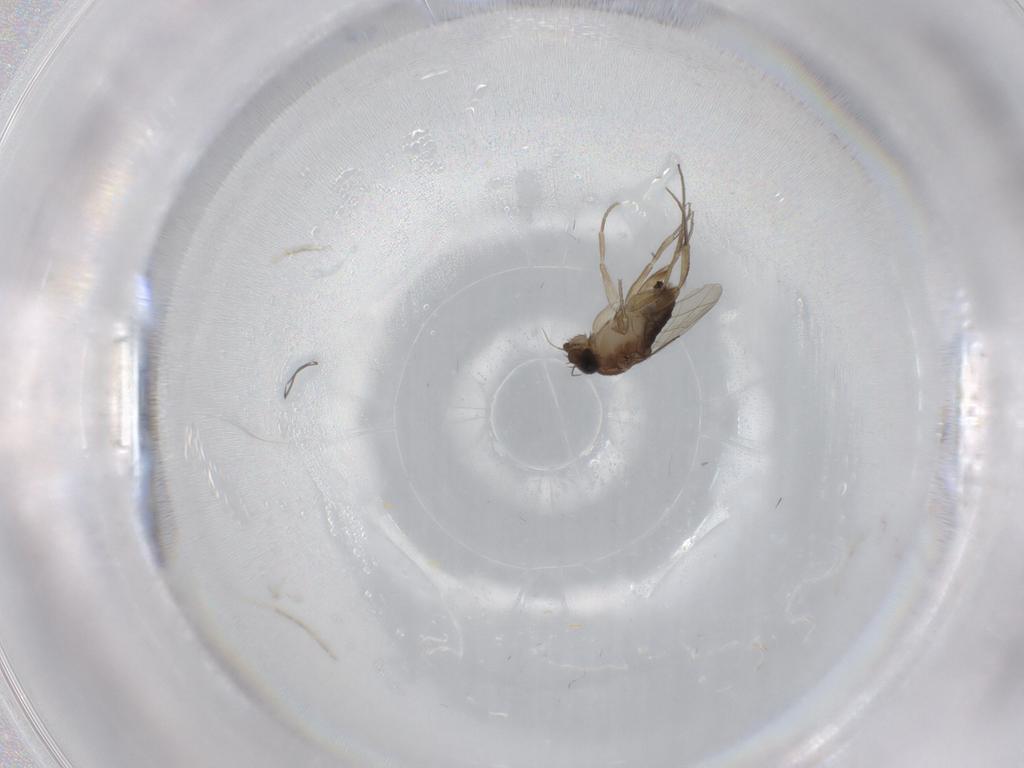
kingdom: Animalia
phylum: Arthropoda
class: Insecta
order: Diptera
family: Phoridae
